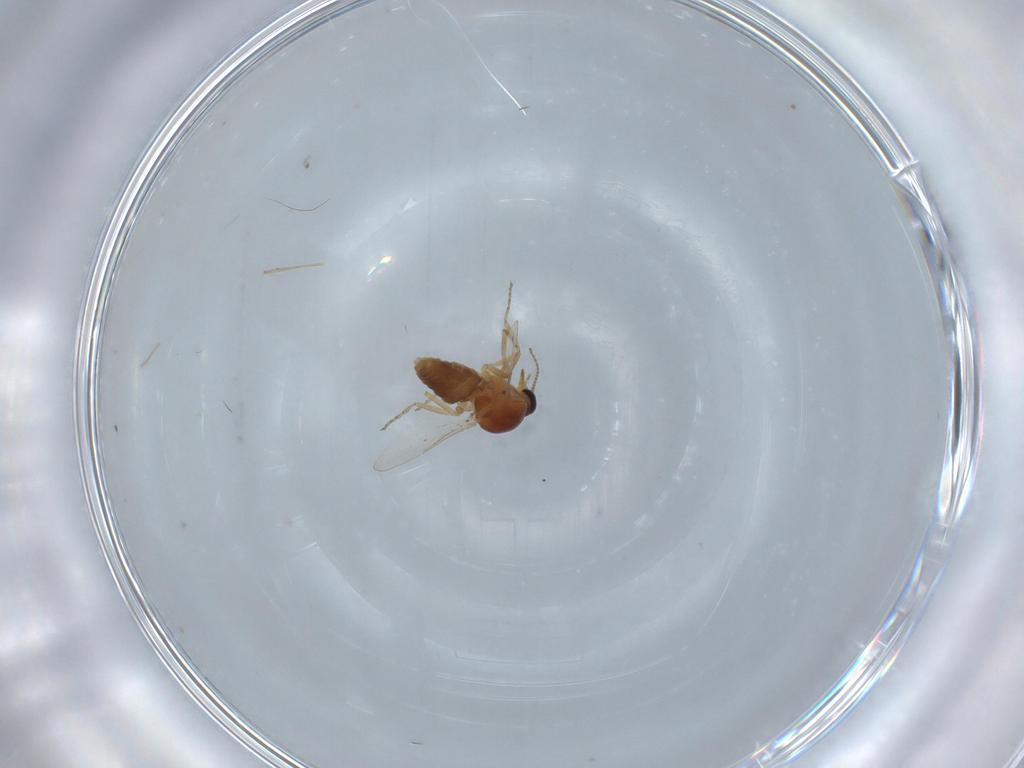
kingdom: Animalia
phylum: Arthropoda
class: Insecta
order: Diptera
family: Ceratopogonidae
